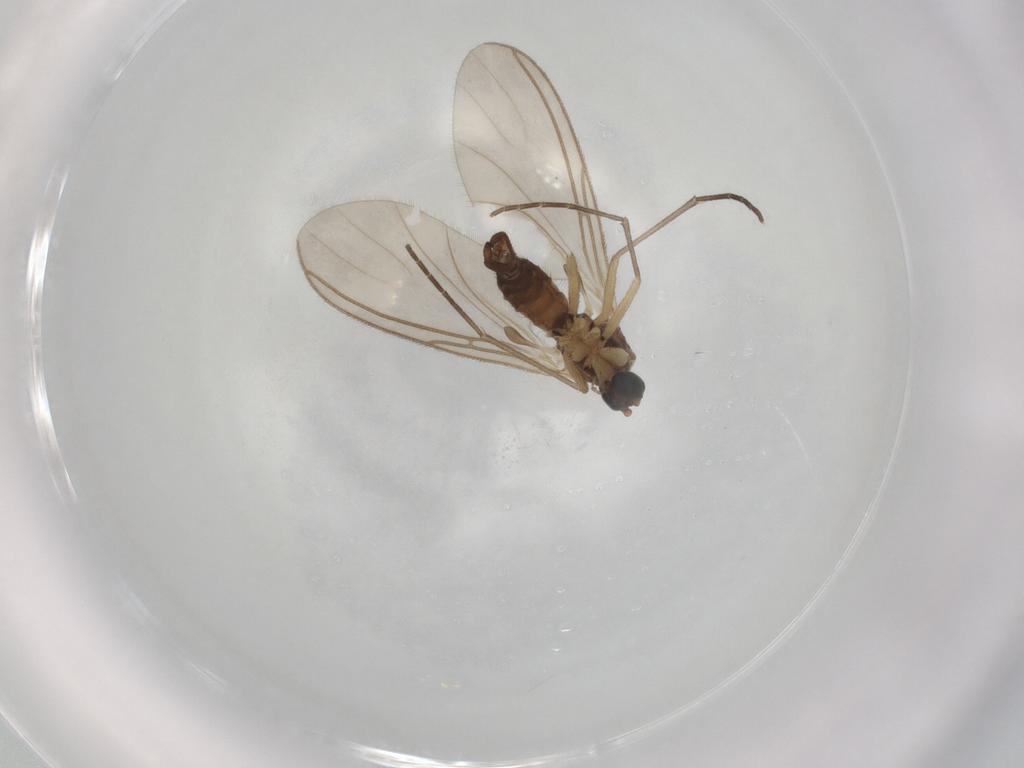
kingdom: Animalia
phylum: Arthropoda
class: Insecta
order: Diptera
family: Sciaridae
